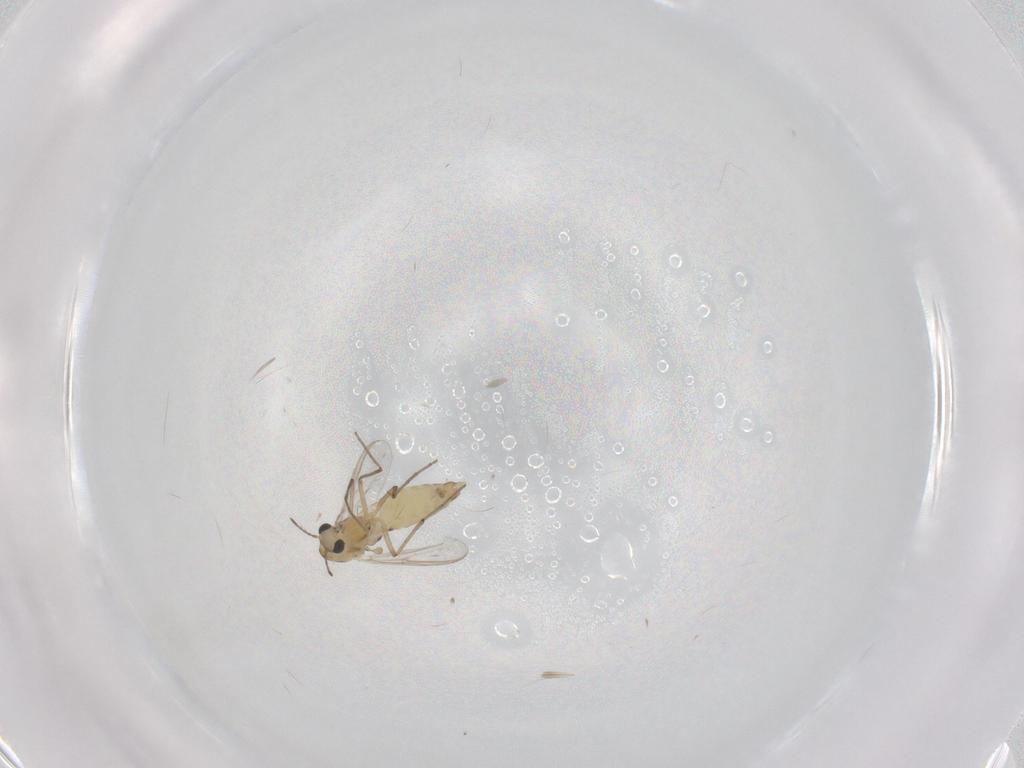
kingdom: Animalia
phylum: Arthropoda
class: Insecta
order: Diptera
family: Chironomidae
